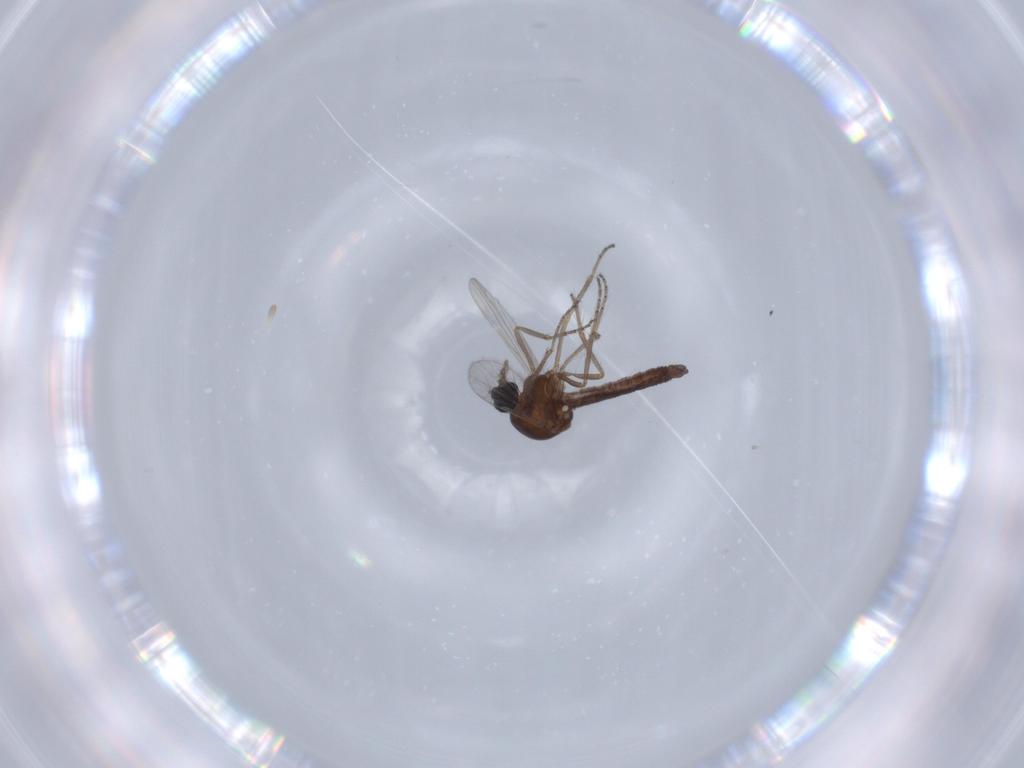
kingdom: Animalia
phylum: Arthropoda
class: Insecta
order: Diptera
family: Ceratopogonidae
